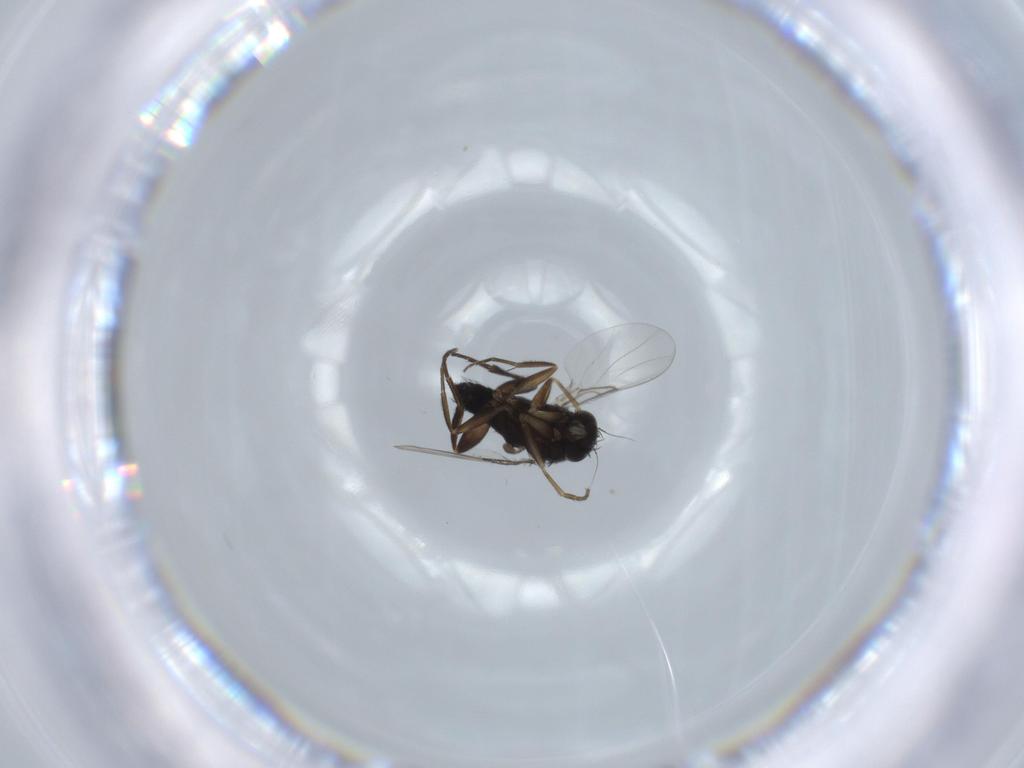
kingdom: Animalia
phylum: Arthropoda
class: Insecta
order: Diptera
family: Phoridae
